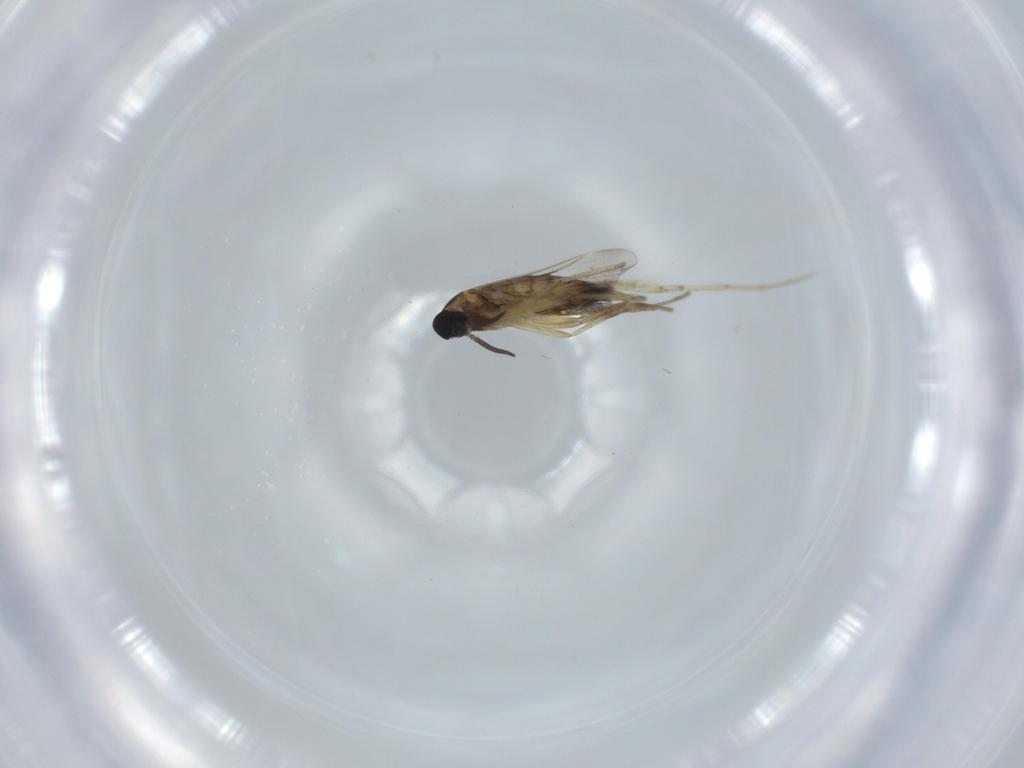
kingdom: Animalia
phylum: Arthropoda
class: Insecta
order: Diptera
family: Cecidomyiidae
